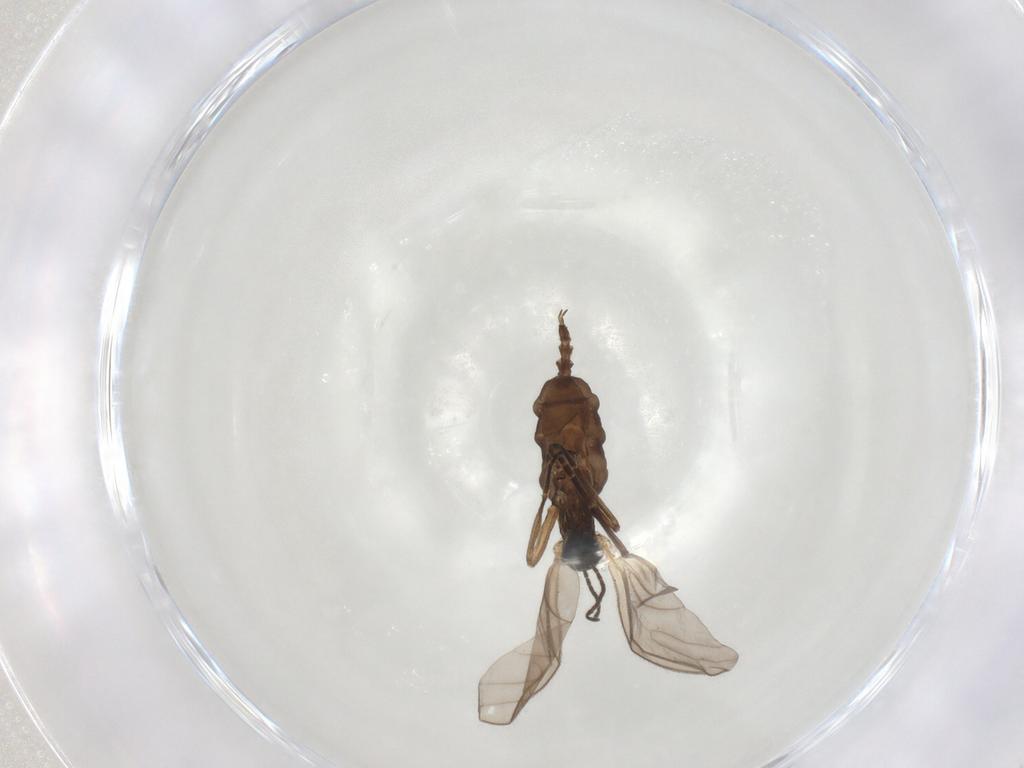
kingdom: Animalia
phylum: Arthropoda
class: Insecta
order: Diptera
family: Sciaridae
